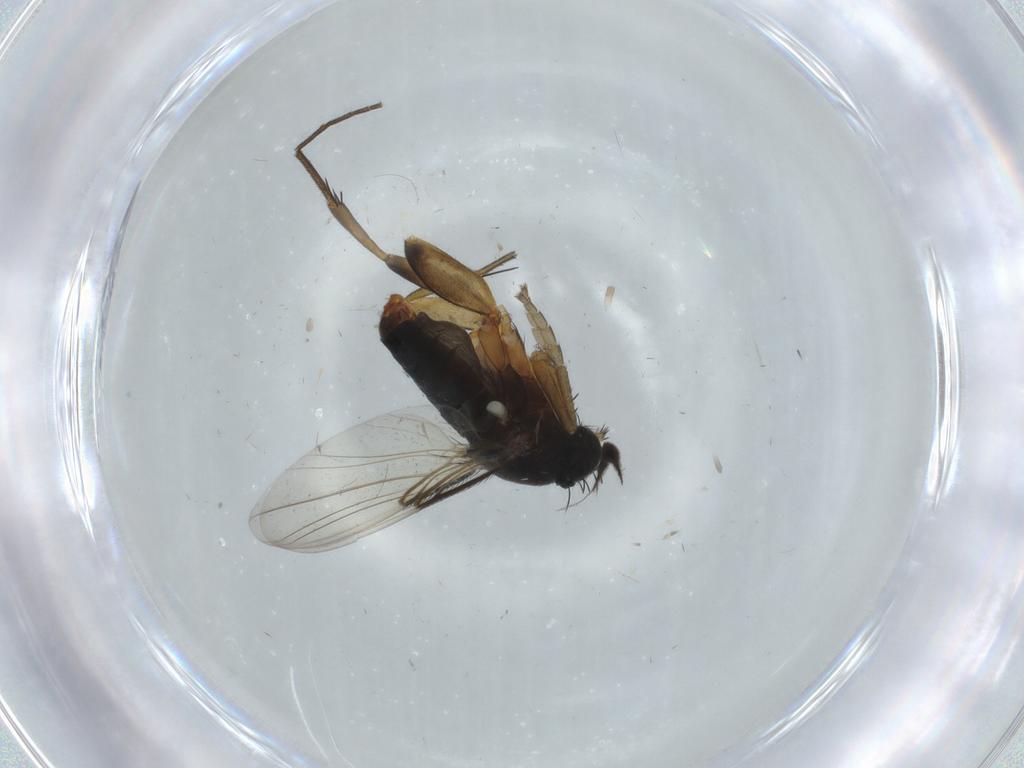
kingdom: Animalia
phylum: Arthropoda
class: Insecta
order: Diptera
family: Phoridae
